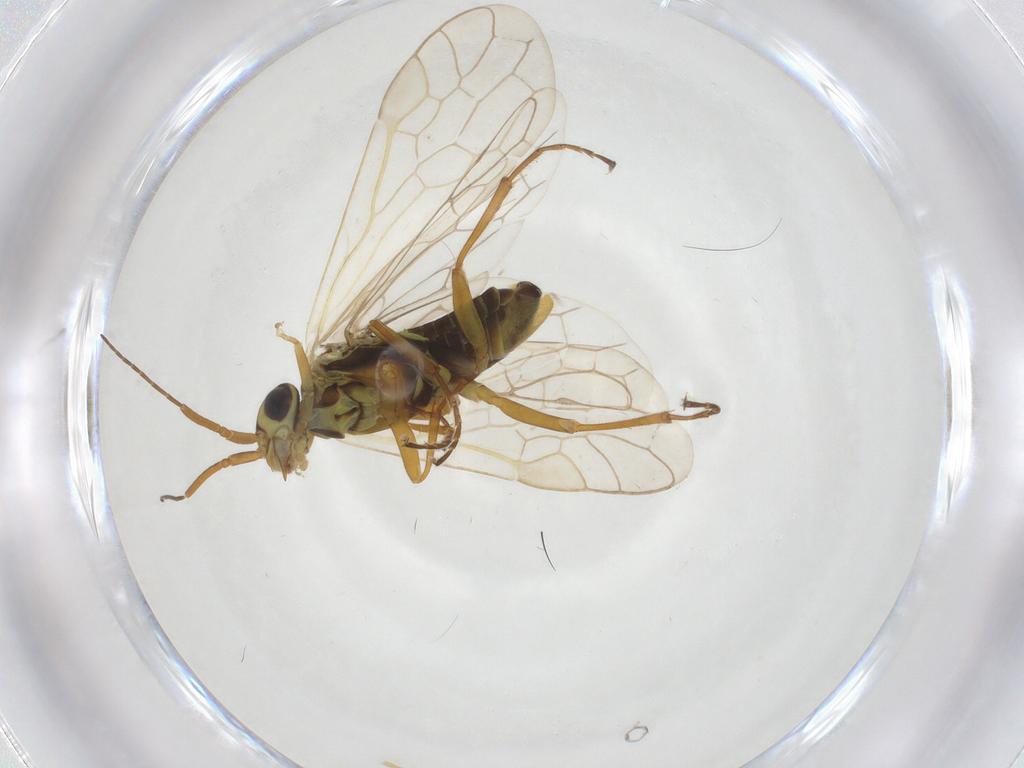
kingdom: Animalia
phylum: Arthropoda
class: Insecta
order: Hymenoptera
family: Xyelidae
